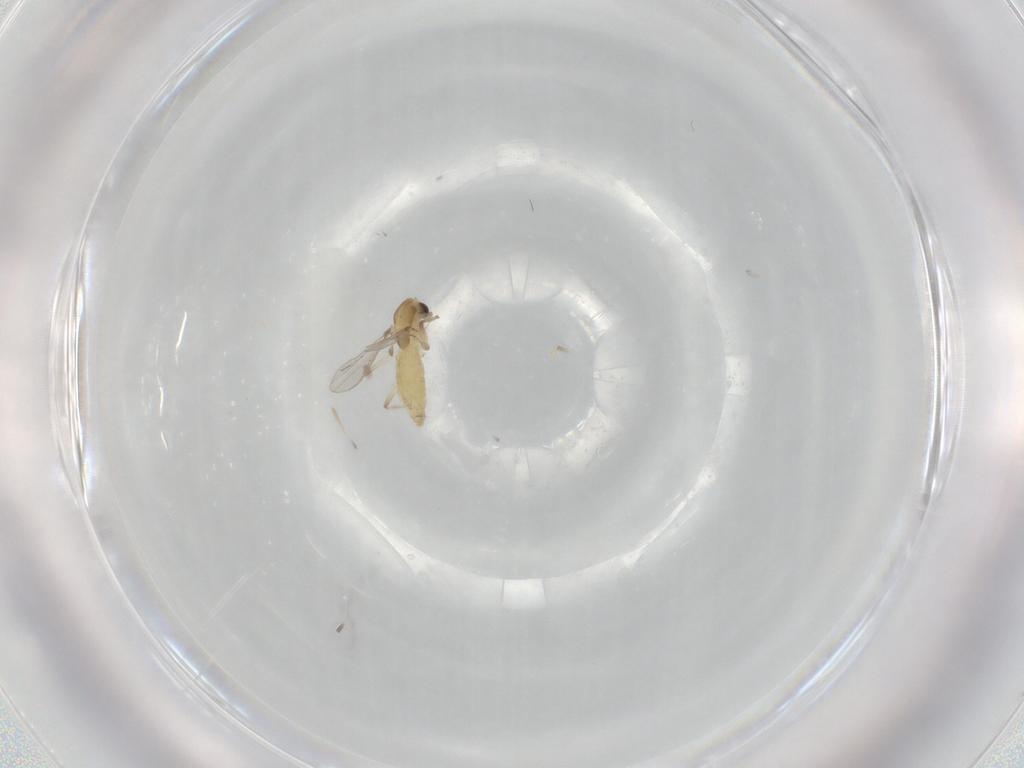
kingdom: Animalia
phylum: Arthropoda
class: Insecta
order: Diptera
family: Chironomidae
